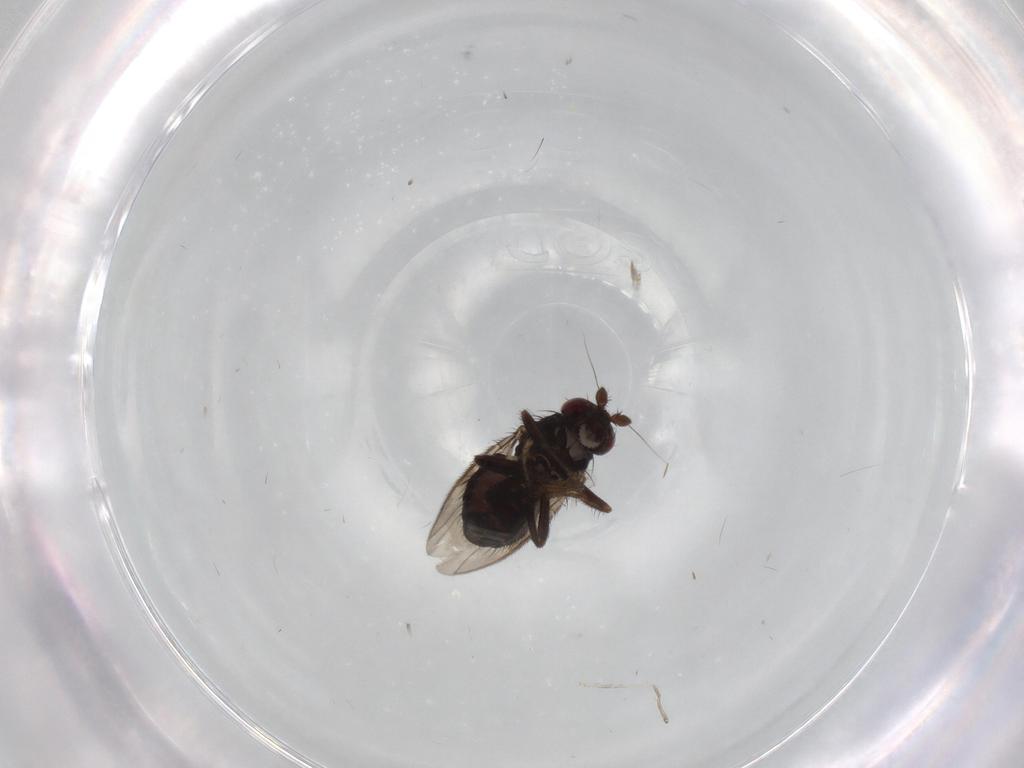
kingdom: Animalia
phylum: Arthropoda
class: Insecta
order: Diptera
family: Sphaeroceridae
